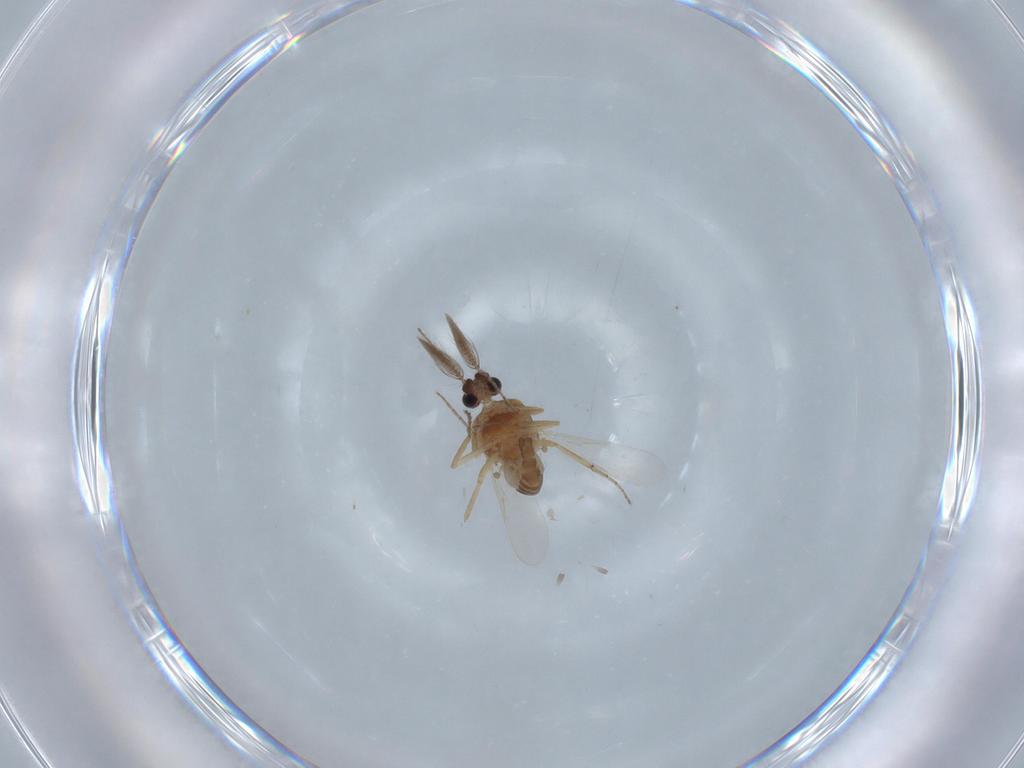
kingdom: Animalia
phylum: Arthropoda
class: Insecta
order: Diptera
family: Ceratopogonidae
